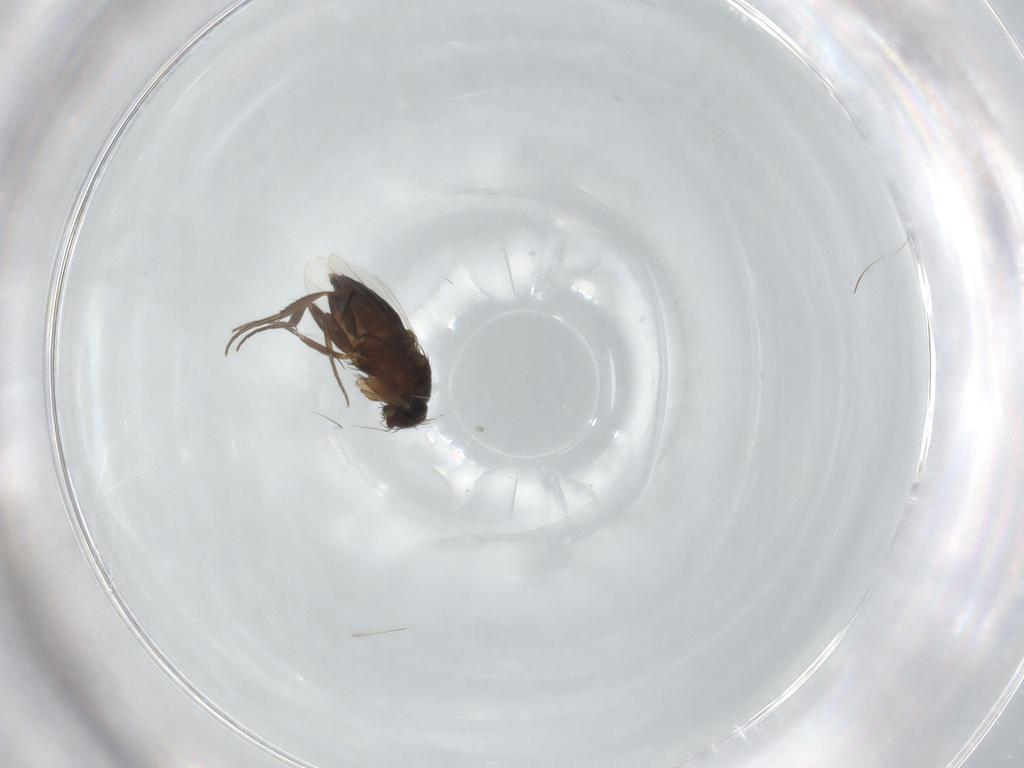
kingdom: Animalia
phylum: Arthropoda
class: Insecta
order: Diptera
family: Phoridae
